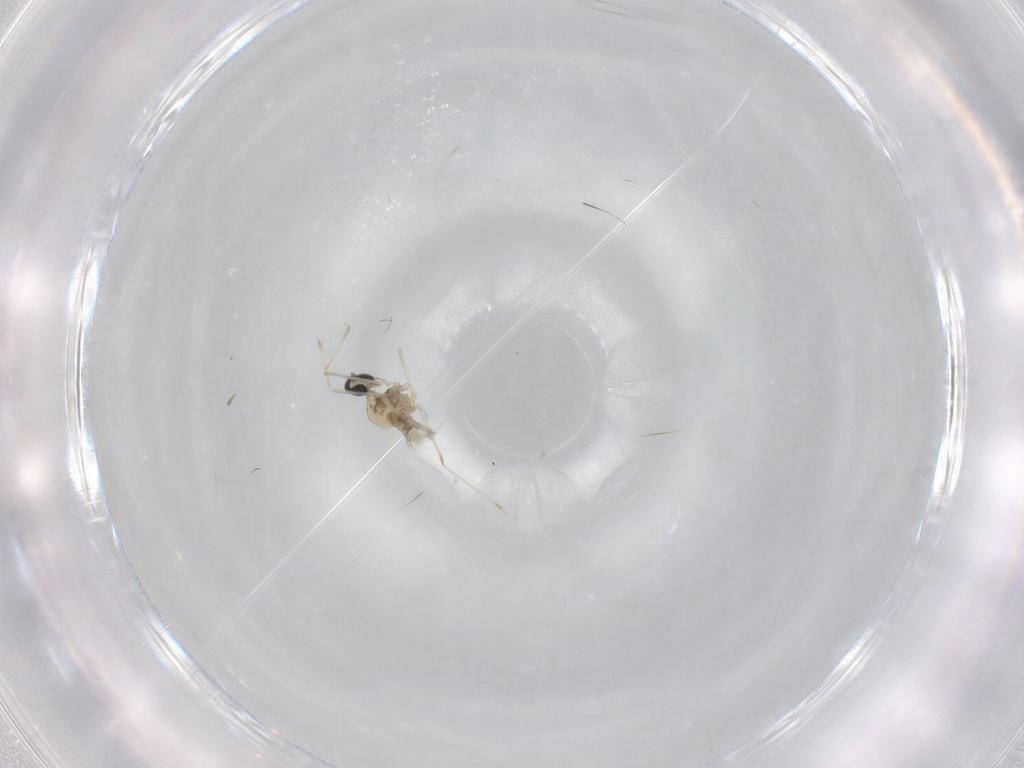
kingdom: Animalia
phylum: Arthropoda
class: Insecta
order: Diptera
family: Cecidomyiidae
